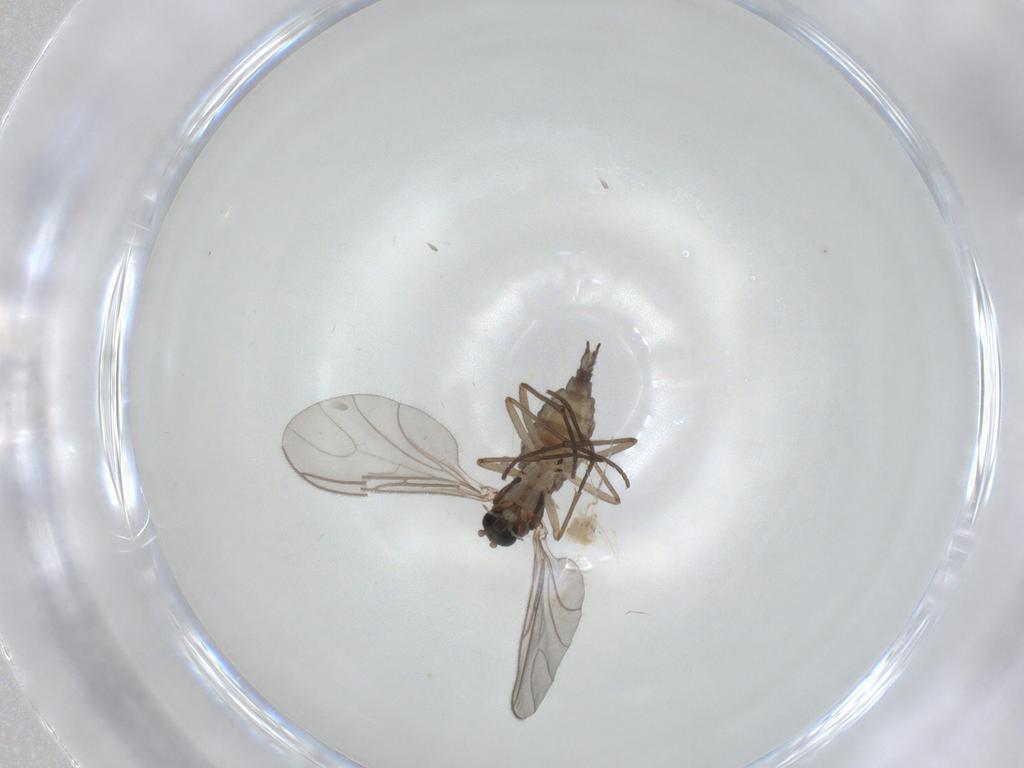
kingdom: Animalia
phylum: Arthropoda
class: Insecta
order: Diptera
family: Sciaridae
